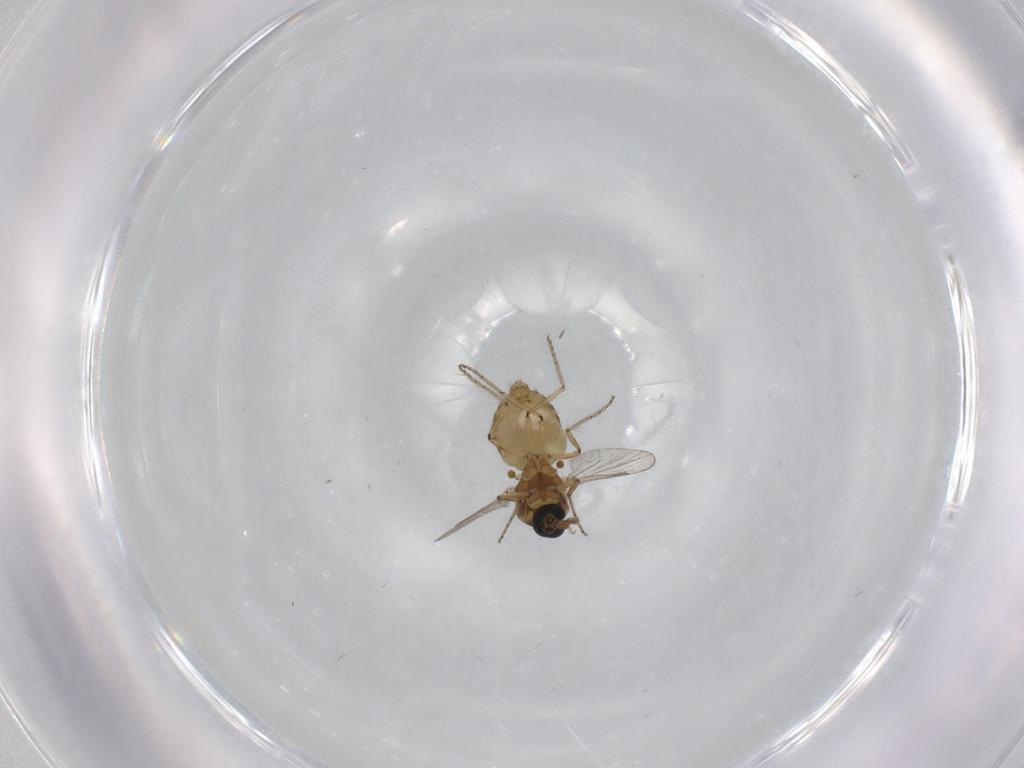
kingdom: Animalia
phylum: Arthropoda
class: Insecta
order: Diptera
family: Ceratopogonidae
